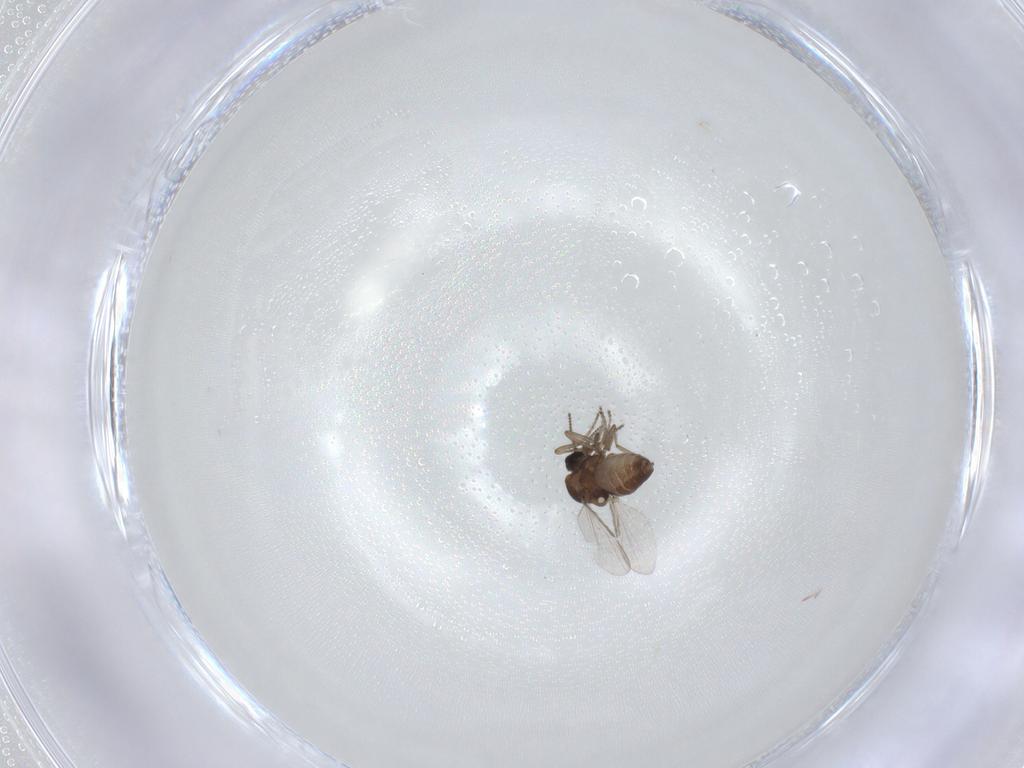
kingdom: Animalia
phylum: Arthropoda
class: Insecta
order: Diptera
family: Ceratopogonidae
